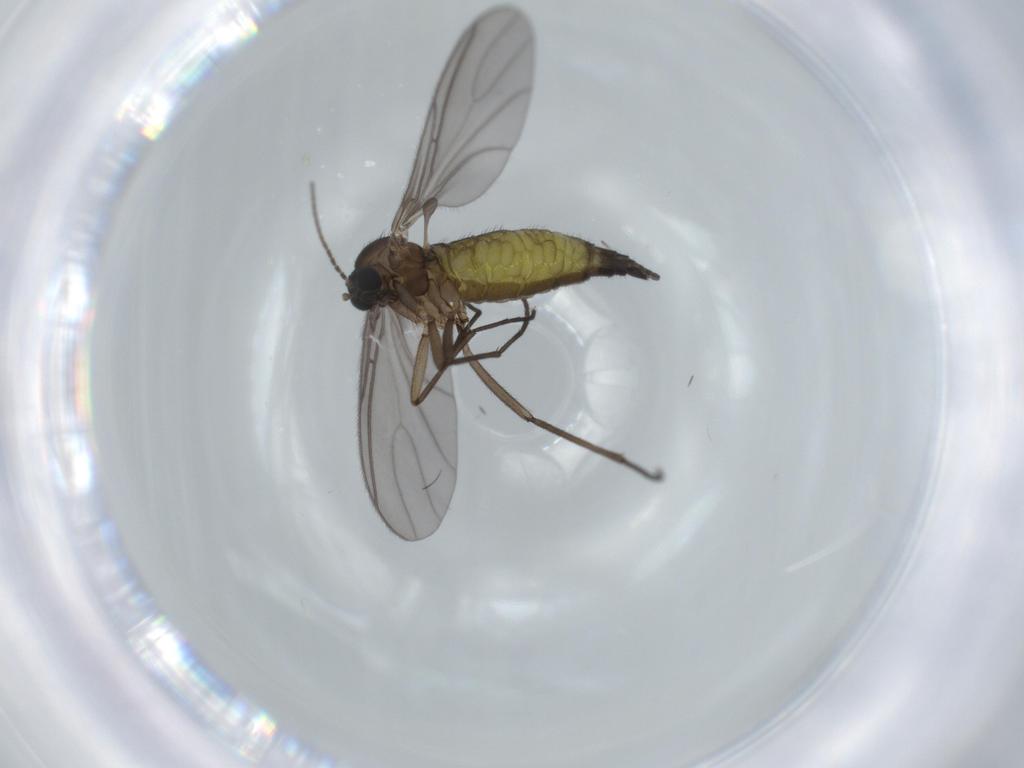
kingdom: Animalia
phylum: Arthropoda
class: Insecta
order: Diptera
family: Sciaridae
